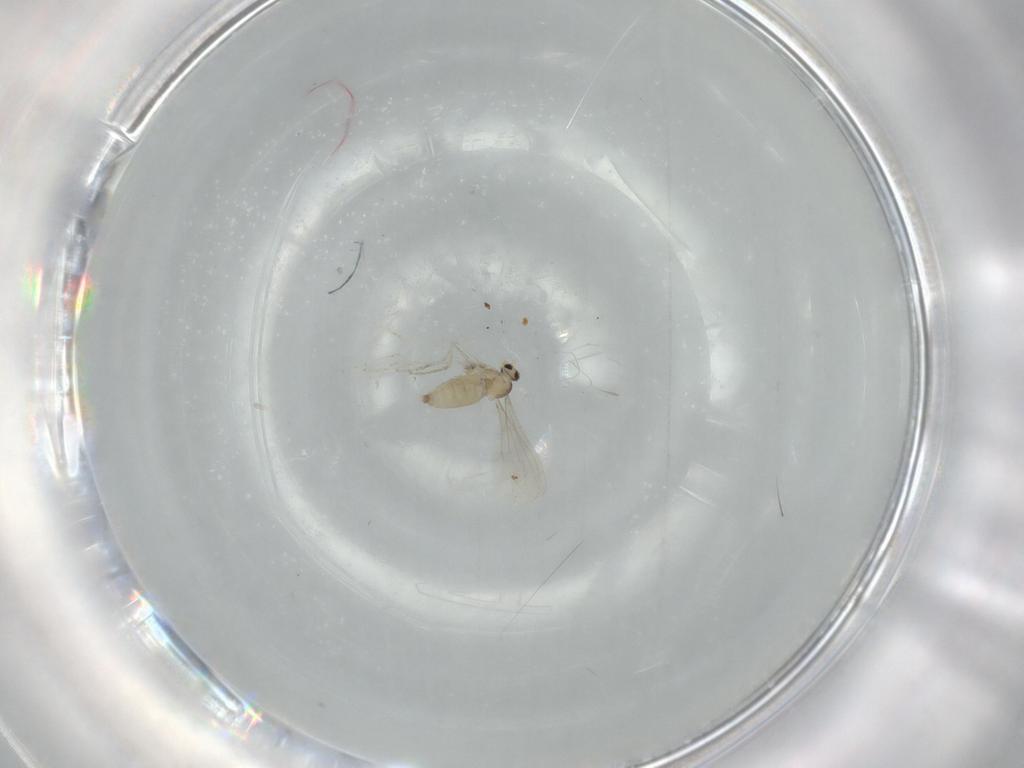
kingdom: Animalia
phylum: Arthropoda
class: Insecta
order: Diptera
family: Cecidomyiidae
